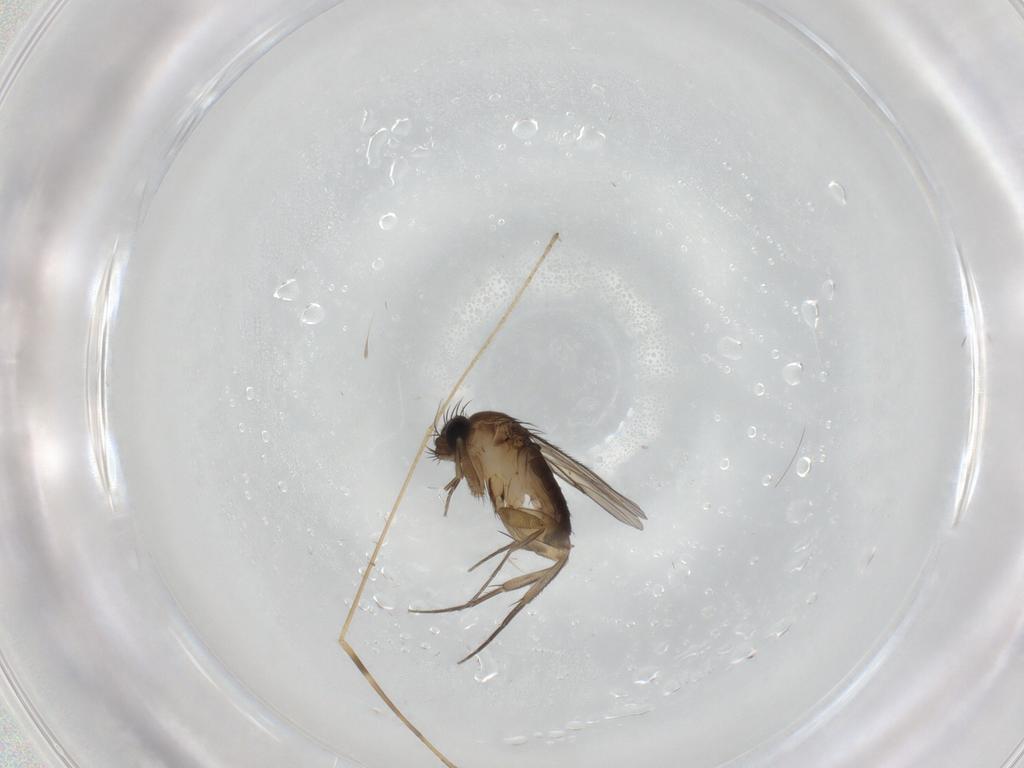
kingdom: Animalia
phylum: Arthropoda
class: Insecta
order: Diptera
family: Phoridae
